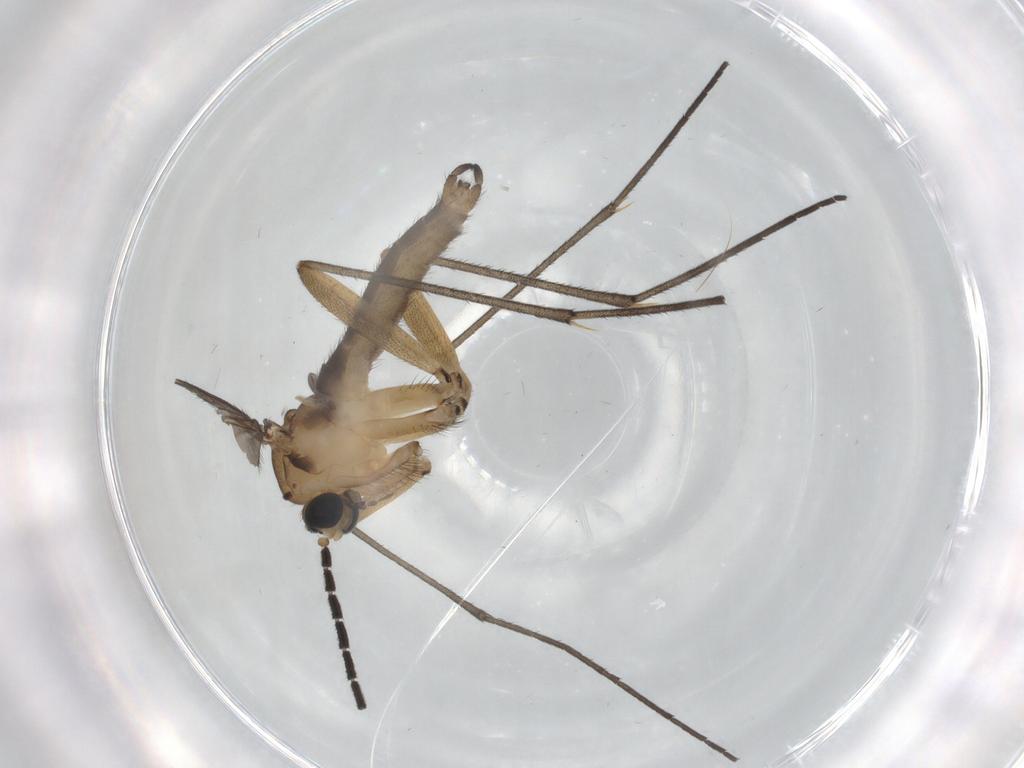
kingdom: Animalia
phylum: Arthropoda
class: Insecta
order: Diptera
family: Sciaridae
